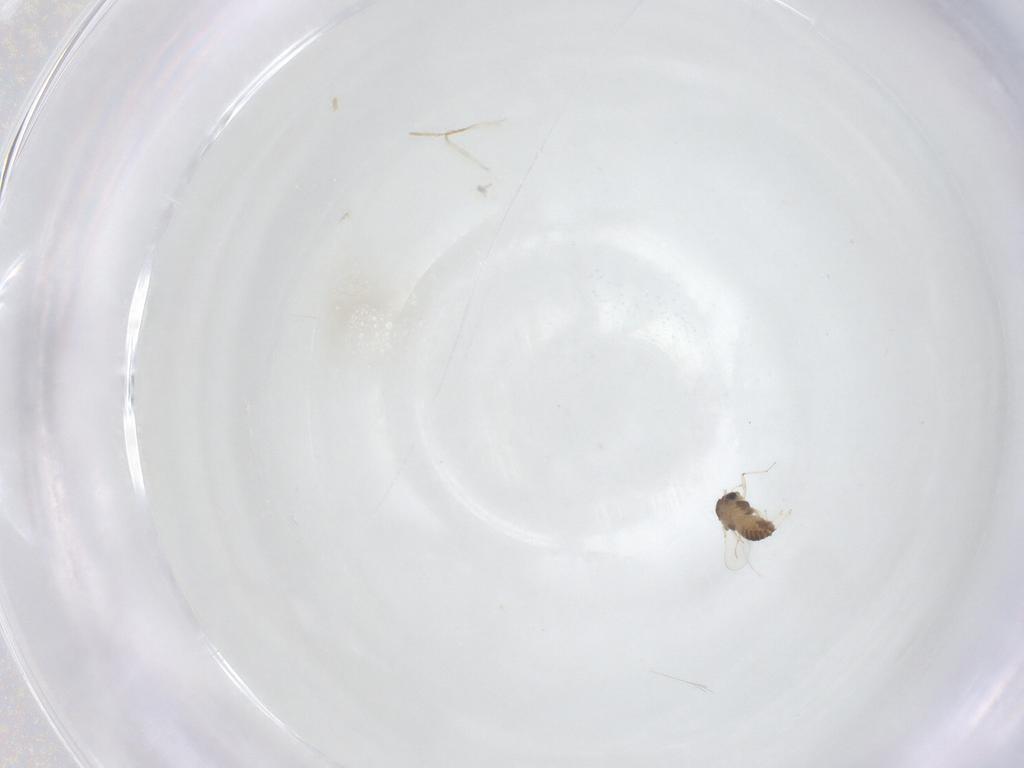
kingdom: Animalia
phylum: Arthropoda
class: Insecta
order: Diptera
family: Chironomidae
